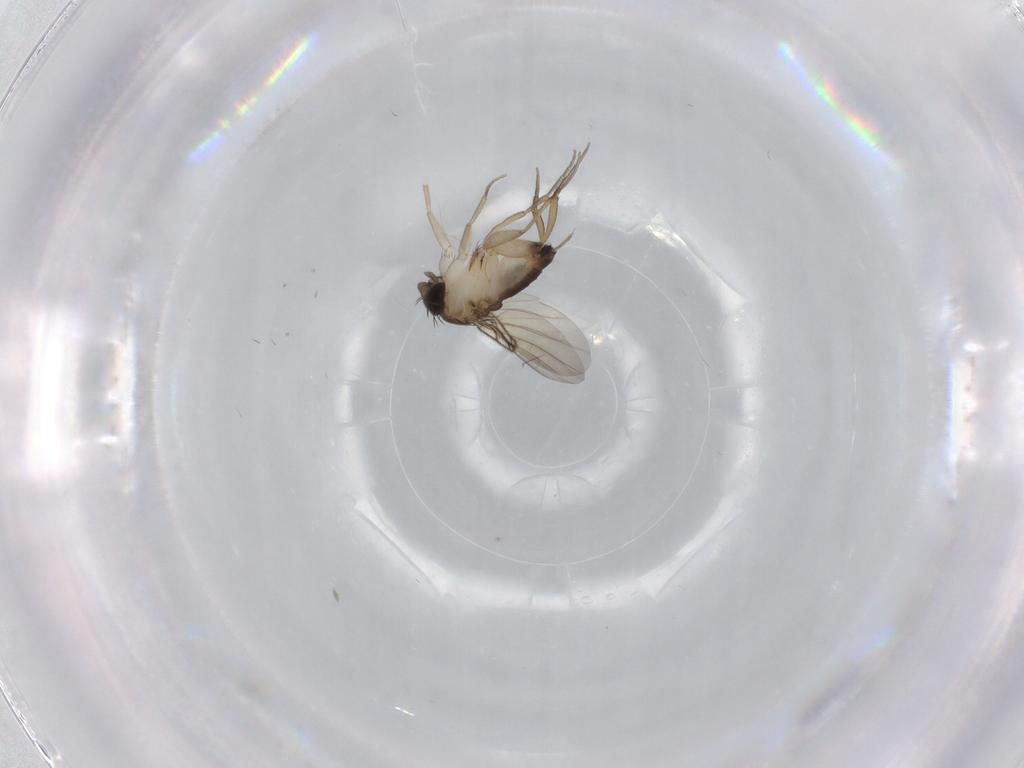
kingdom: Animalia
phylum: Arthropoda
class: Insecta
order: Diptera
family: Phoridae
